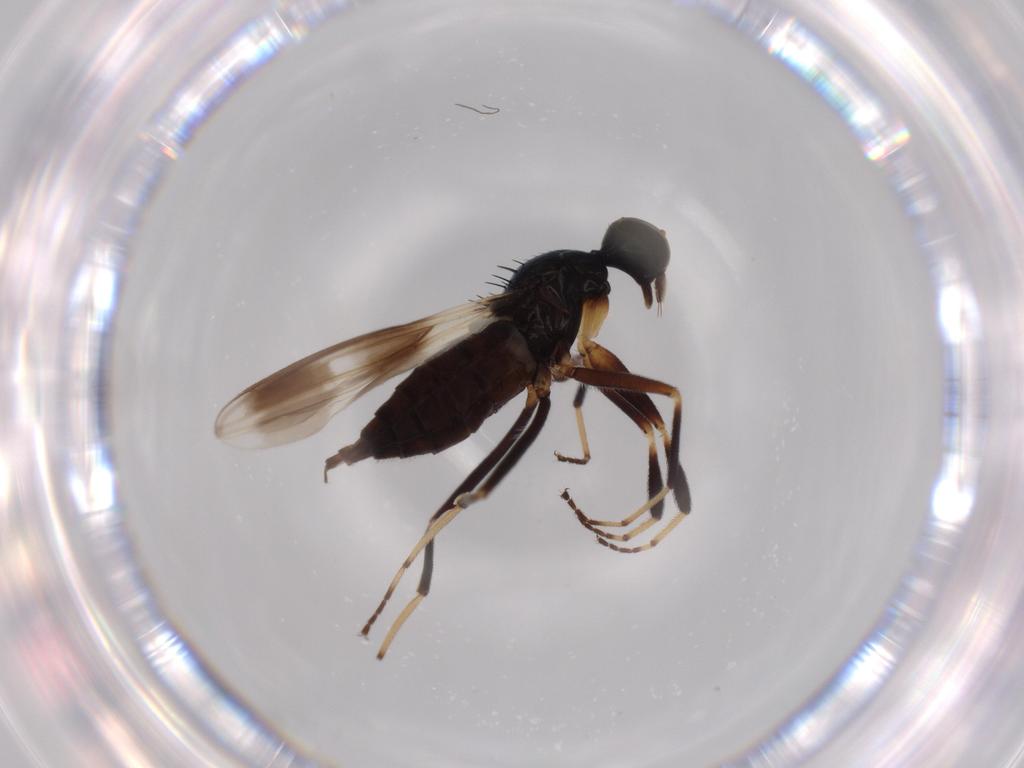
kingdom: Animalia
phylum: Arthropoda
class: Insecta
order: Diptera
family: Hybotidae
